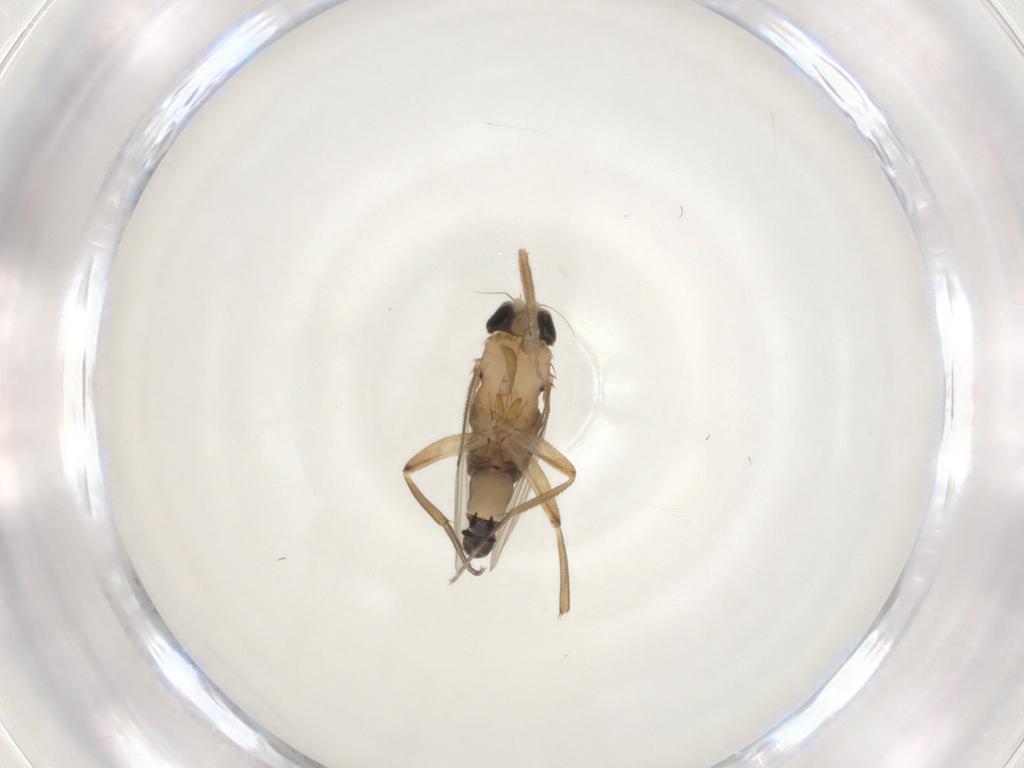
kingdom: Animalia
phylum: Arthropoda
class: Insecta
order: Diptera
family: Phoridae
